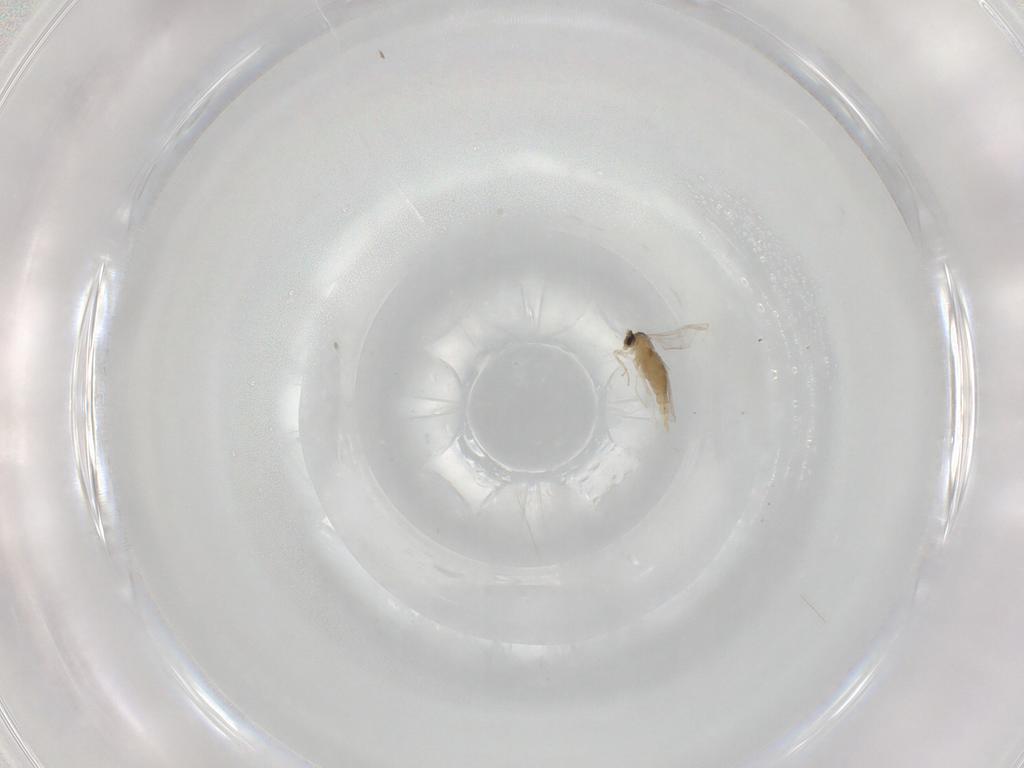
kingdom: Animalia
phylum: Arthropoda
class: Insecta
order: Diptera
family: Cecidomyiidae
